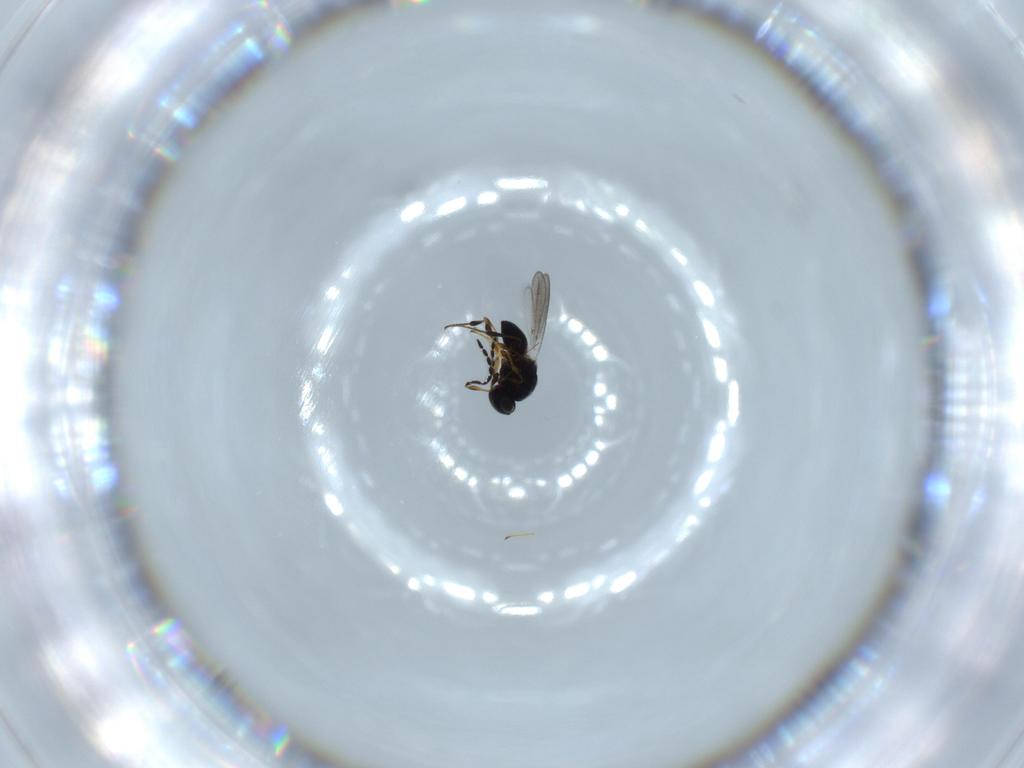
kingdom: Animalia
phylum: Arthropoda
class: Insecta
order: Hymenoptera
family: Platygastridae
